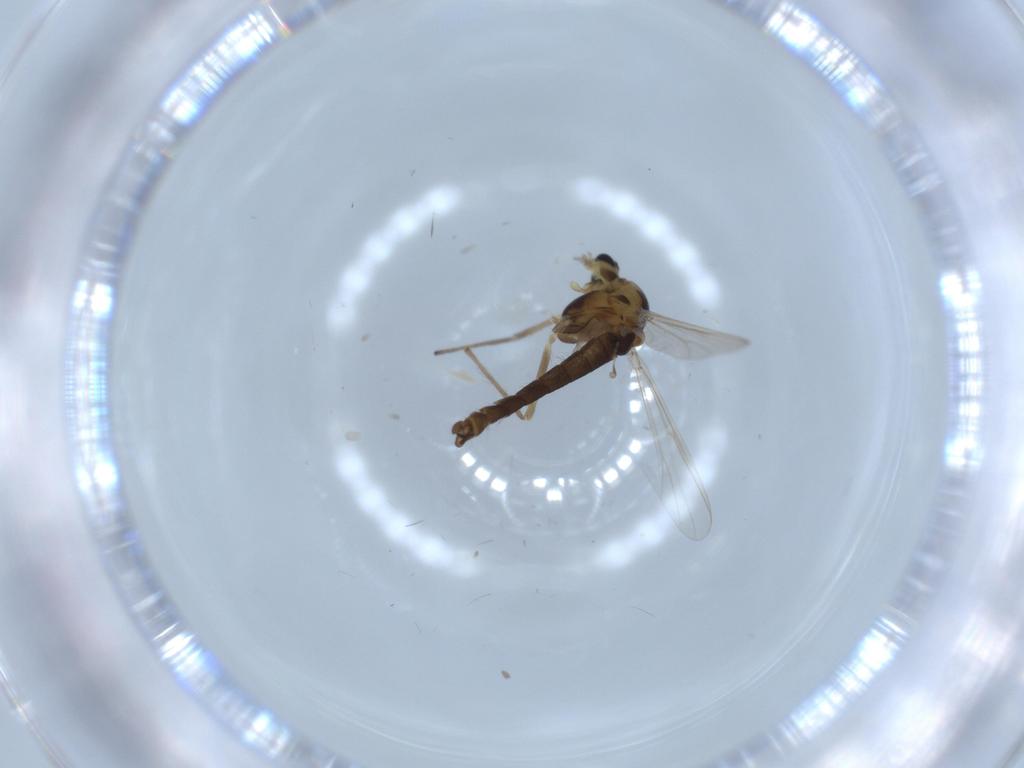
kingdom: Animalia
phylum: Arthropoda
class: Insecta
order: Diptera
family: Chironomidae
